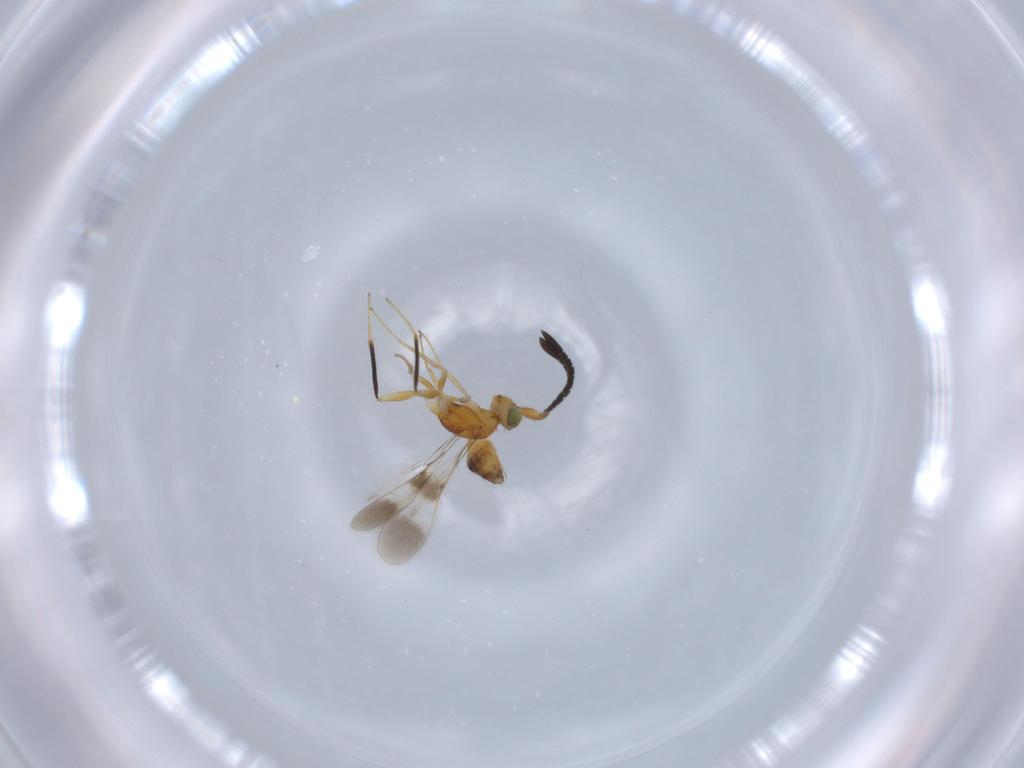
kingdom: Animalia
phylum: Arthropoda
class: Insecta
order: Hymenoptera
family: Mymaridae
